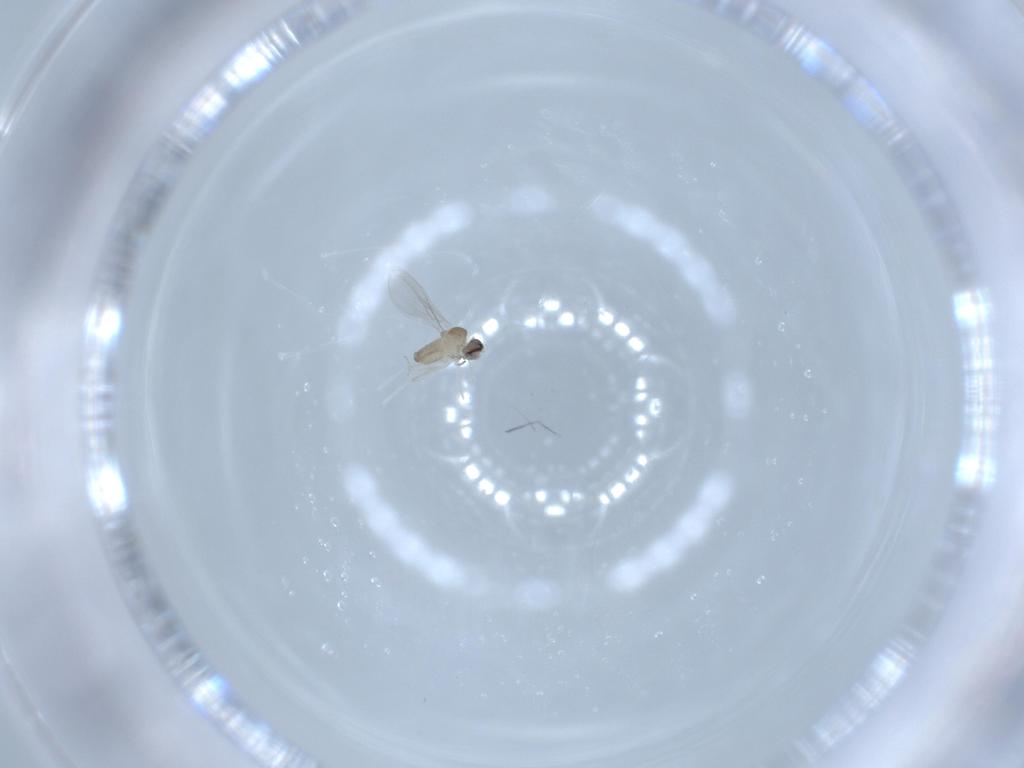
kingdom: Animalia
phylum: Arthropoda
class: Insecta
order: Diptera
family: Cecidomyiidae
